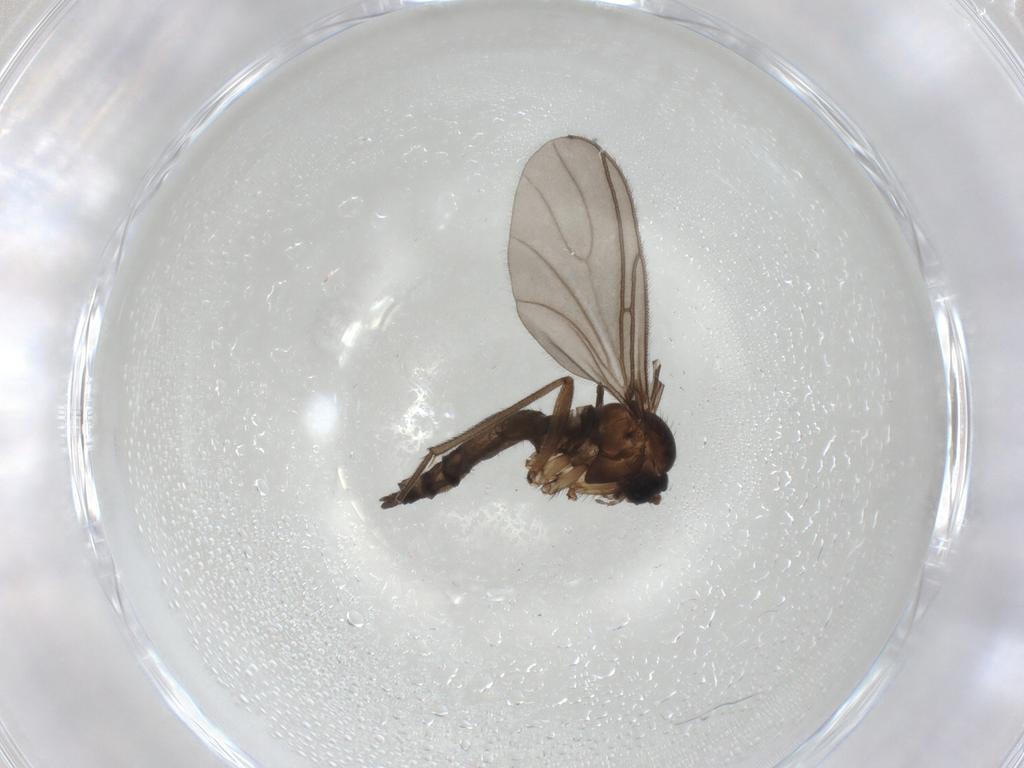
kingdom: Animalia
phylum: Arthropoda
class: Insecta
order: Diptera
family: Sciaridae
